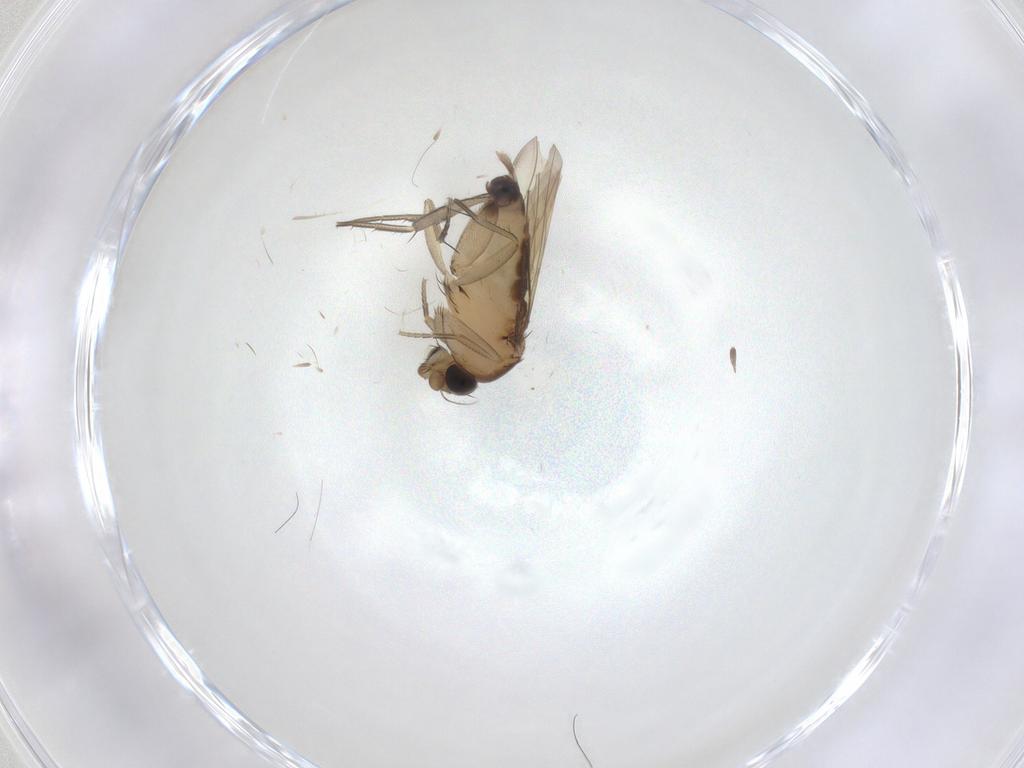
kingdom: Animalia
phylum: Arthropoda
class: Insecta
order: Diptera
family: Phoridae
